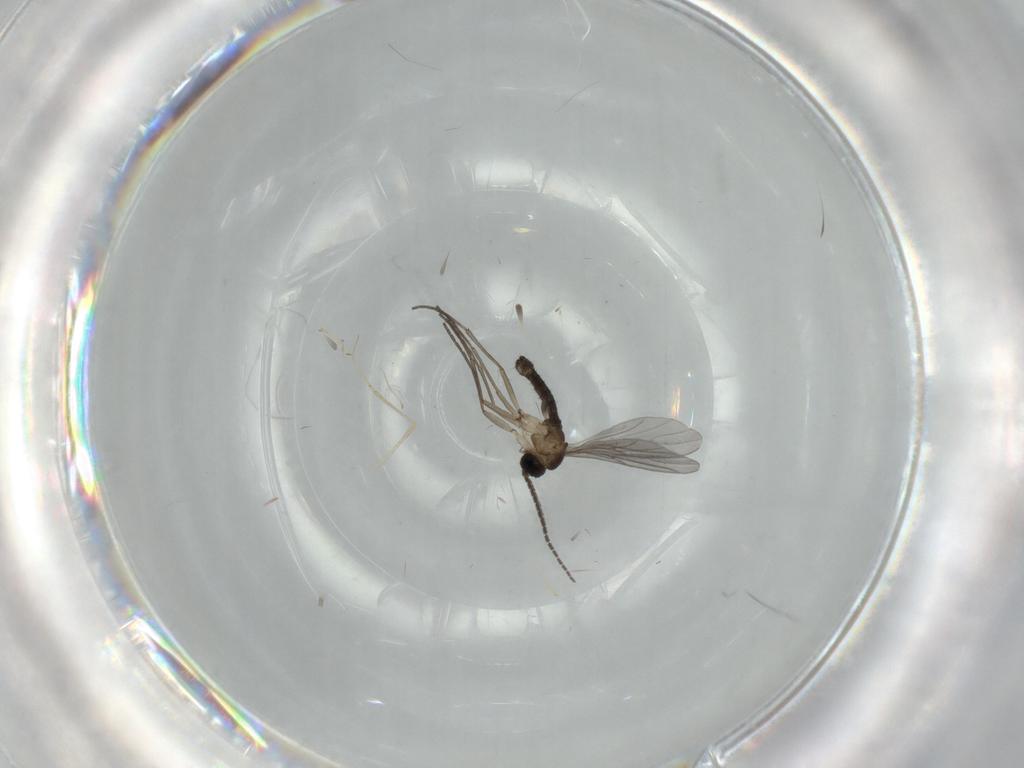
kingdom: Animalia
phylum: Arthropoda
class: Insecta
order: Diptera
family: Sciaridae
